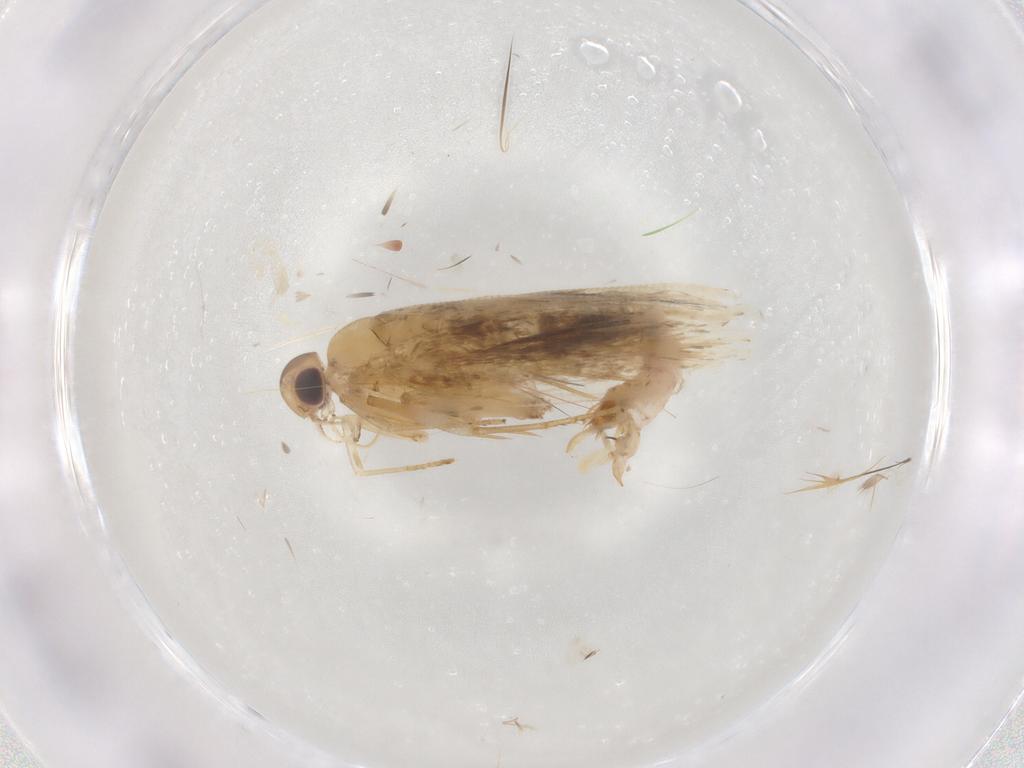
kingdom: Animalia
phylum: Arthropoda
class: Insecta
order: Lepidoptera
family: Gelechiidae
